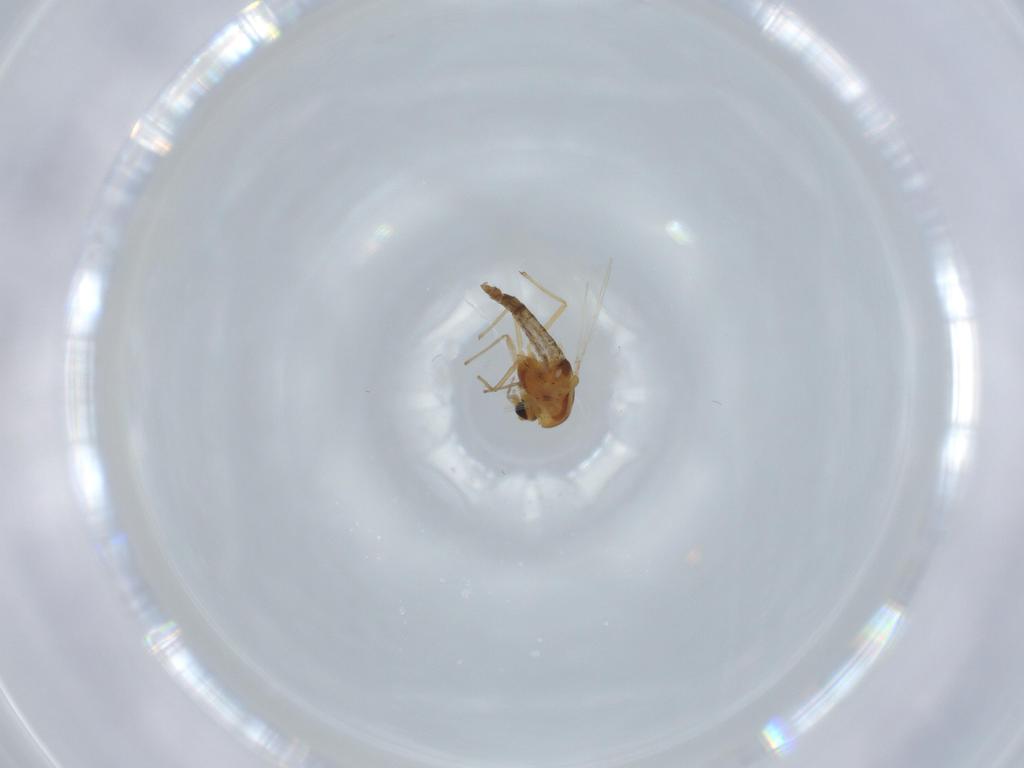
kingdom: Animalia
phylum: Arthropoda
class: Insecta
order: Diptera
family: Chironomidae
